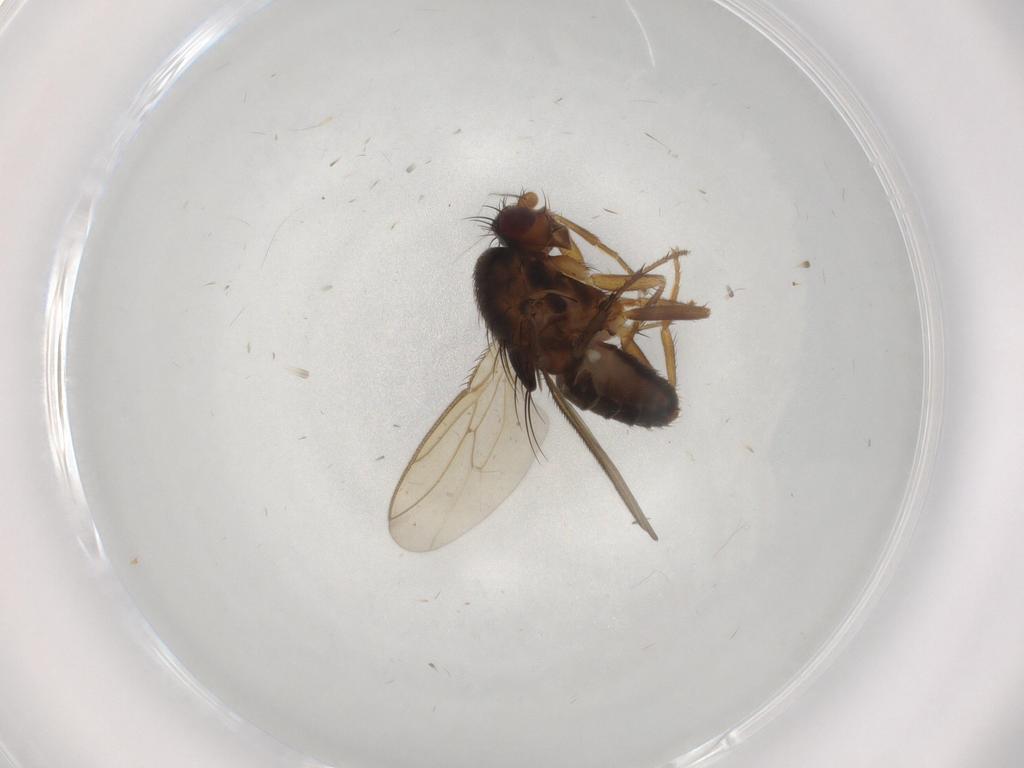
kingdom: Animalia
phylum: Arthropoda
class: Insecta
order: Diptera
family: Sphaeroceridae
